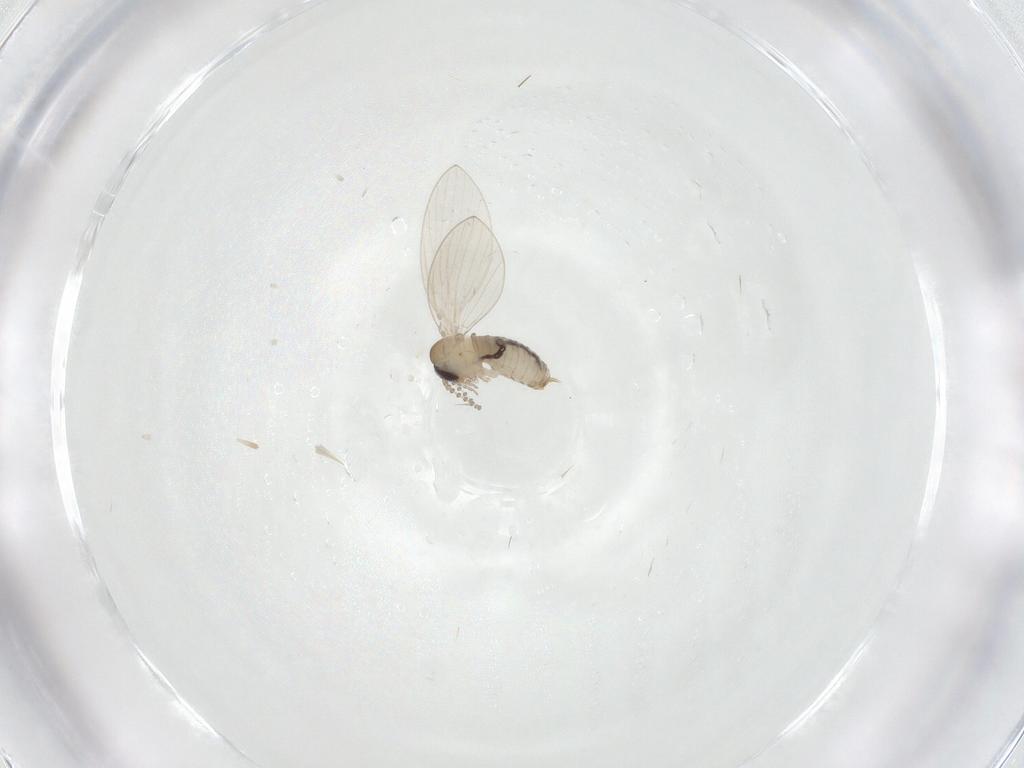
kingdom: Animalia
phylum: Arthropoda
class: Insecta
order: Diptera
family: Psychodidae
